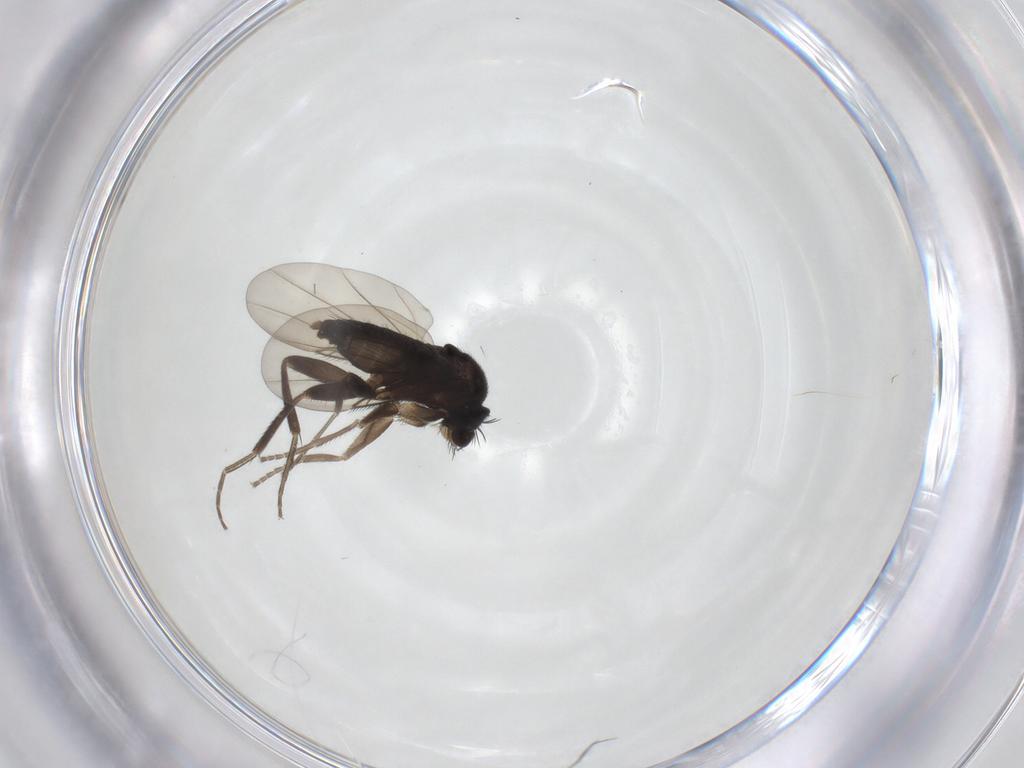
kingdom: Animalia
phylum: Arthropoda
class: Insecta
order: Diptera
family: Phoridae
